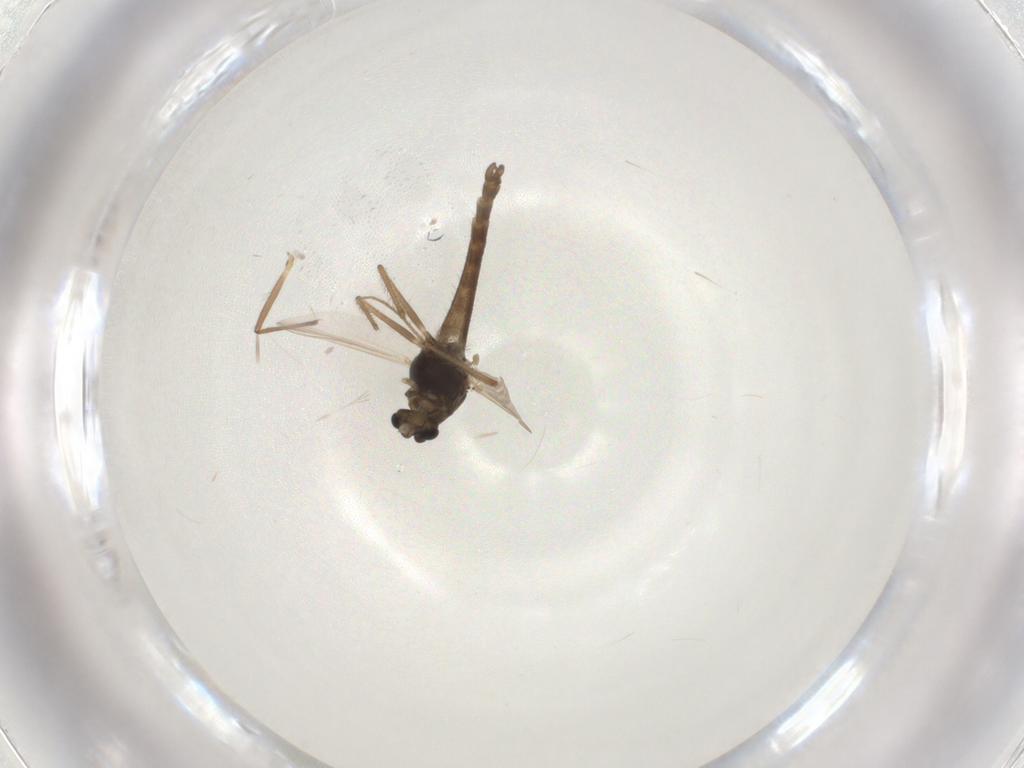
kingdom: Animalia
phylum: Arthropoda
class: Insecta
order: Diptera
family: Chironomidae
